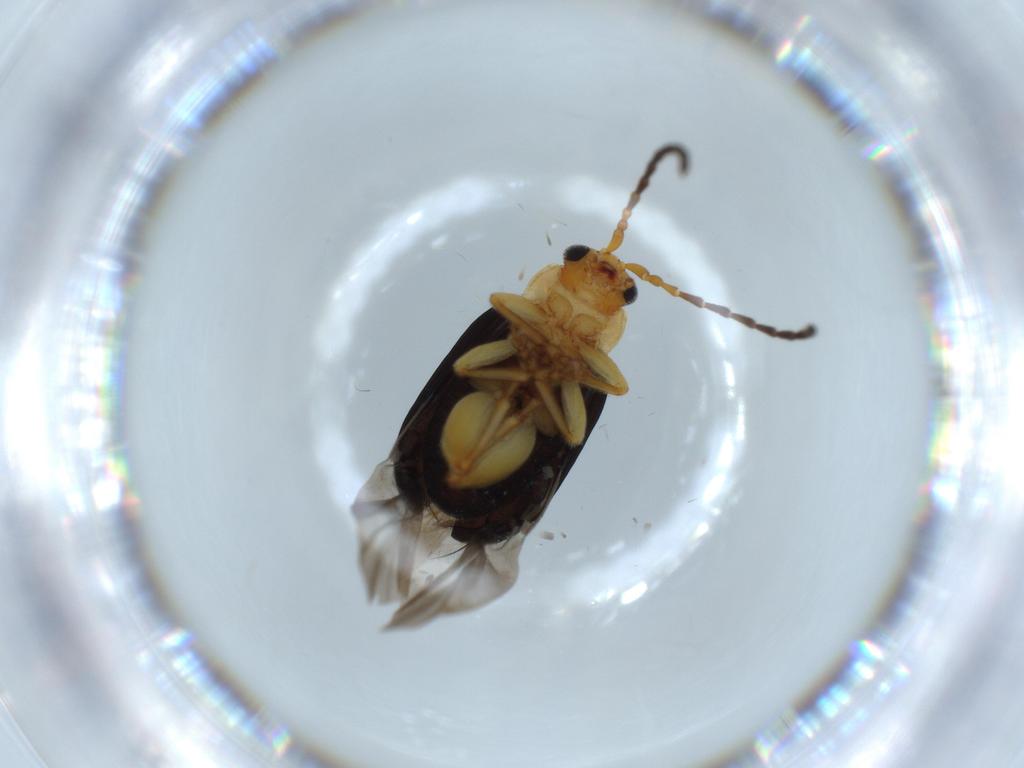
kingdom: Animalia
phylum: Arthropoda
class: Insecta
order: Coleoptera
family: Chrysomelidae
